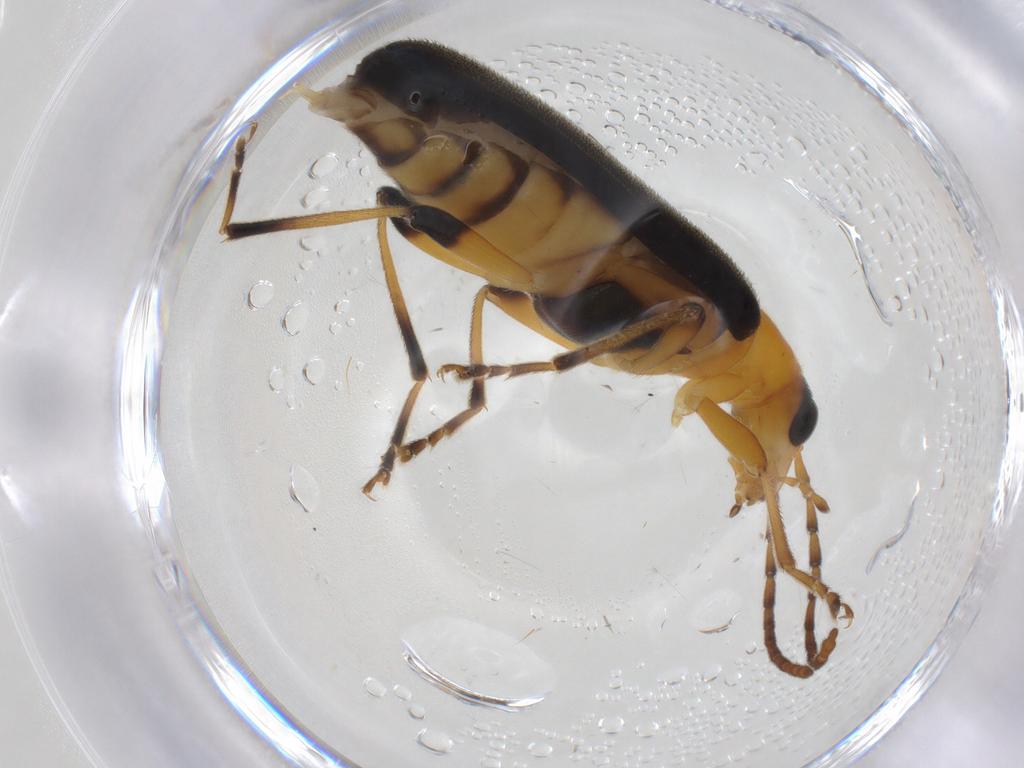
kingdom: Animalia
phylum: Arthropoda
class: Insecta
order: Coleoptera
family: Oedemeridae
